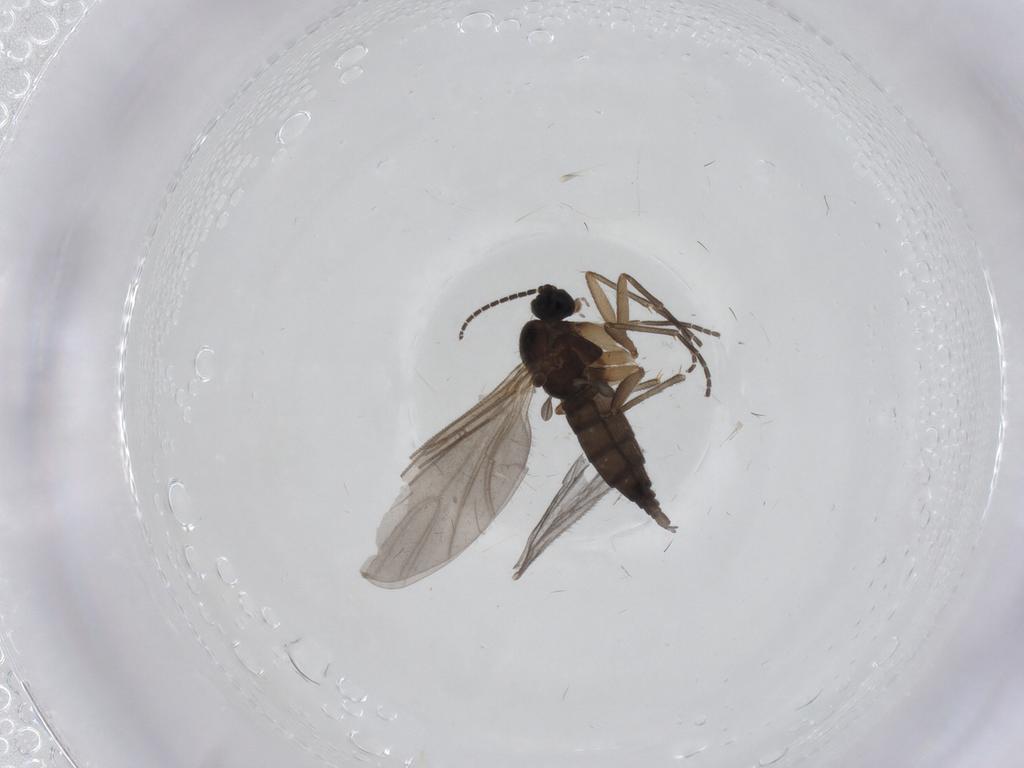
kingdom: Animalia
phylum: Arthropoda
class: Insecta
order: Diptera
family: Sciaridae
